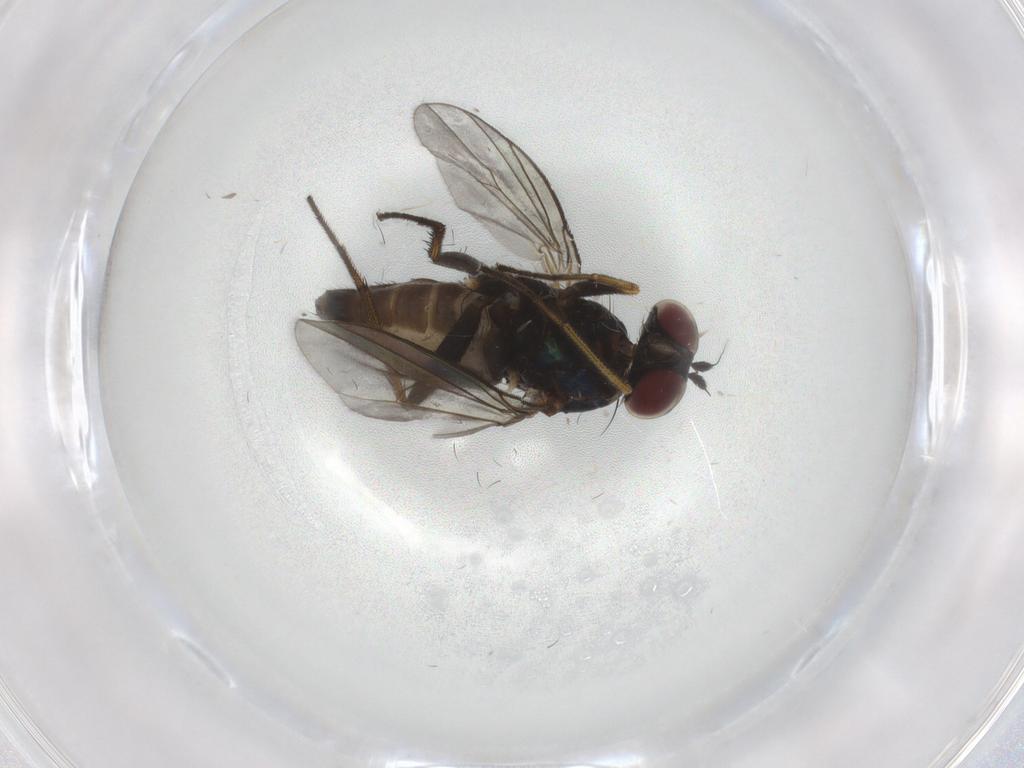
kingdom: Animalia
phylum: Arthropoda
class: Insecta
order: Diptera
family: Dolichopodidae
